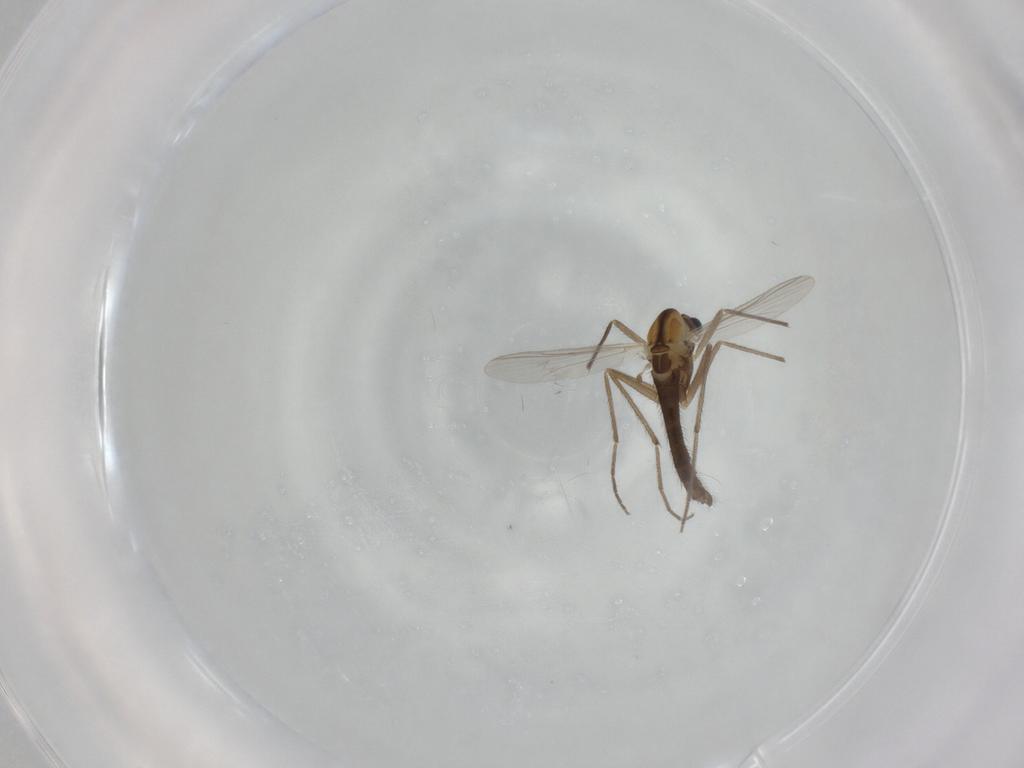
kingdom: Animalia
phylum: Arthropoda
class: Insecta
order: Diptera
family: Chironomidae
